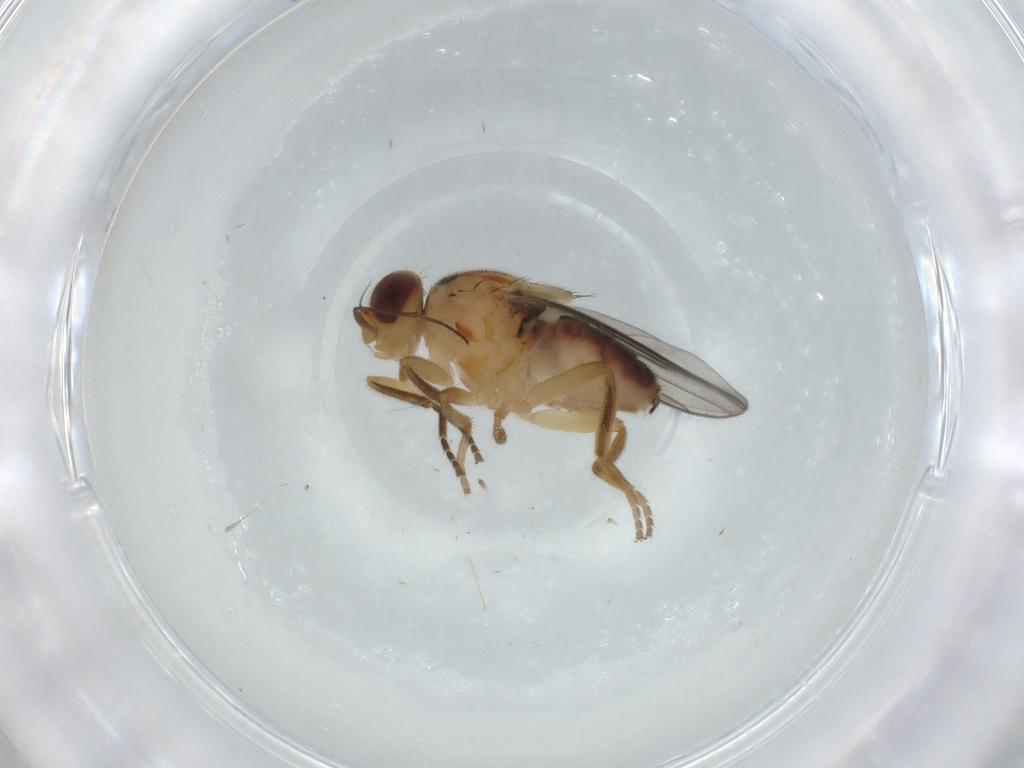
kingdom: Animalia
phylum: Arthropoda
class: Insecta
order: Diptera
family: Chloropidae
